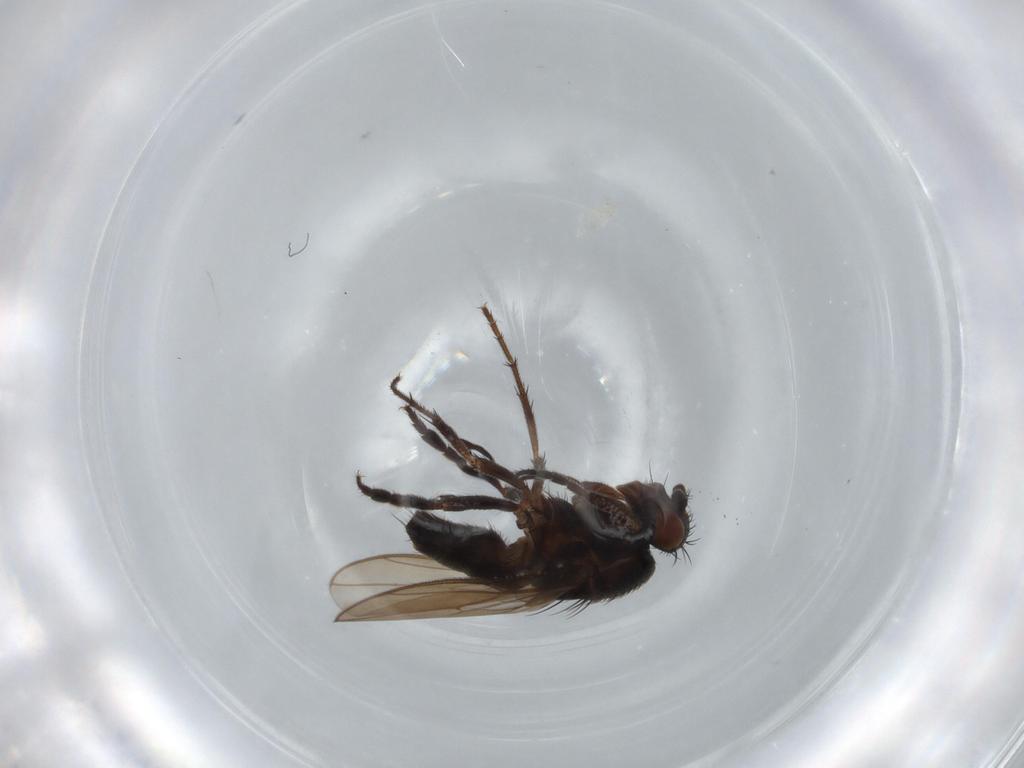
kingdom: Animalia
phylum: Arthropoda
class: Insecta
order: Diptera
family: Sphaeroceridae
